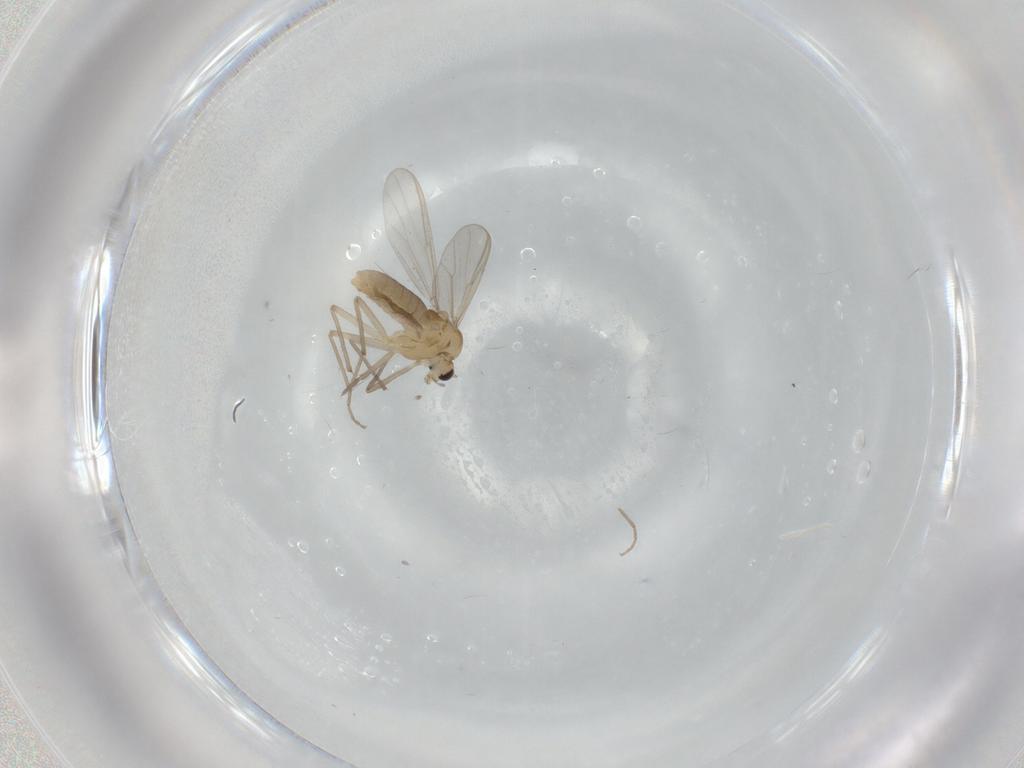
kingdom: Animalia
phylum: Arthropoda
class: Insecta
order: Diptera
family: Chironomidae
